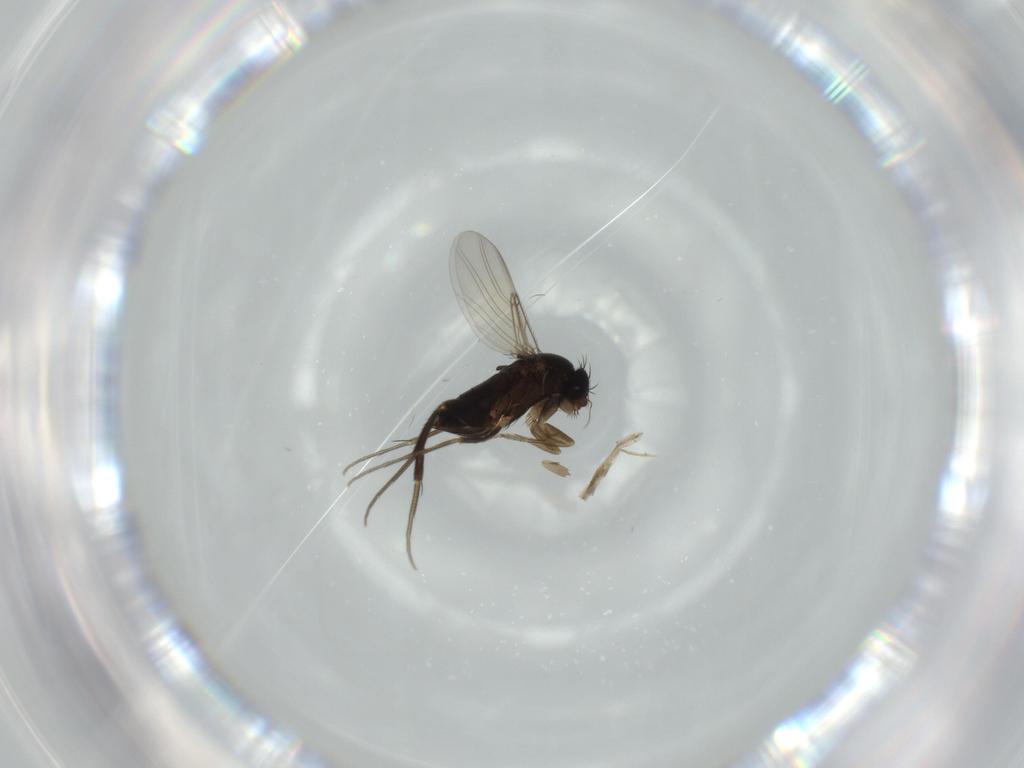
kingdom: Animalia
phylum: Arthropoda
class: Insecta
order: Diptera
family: Phoridae
